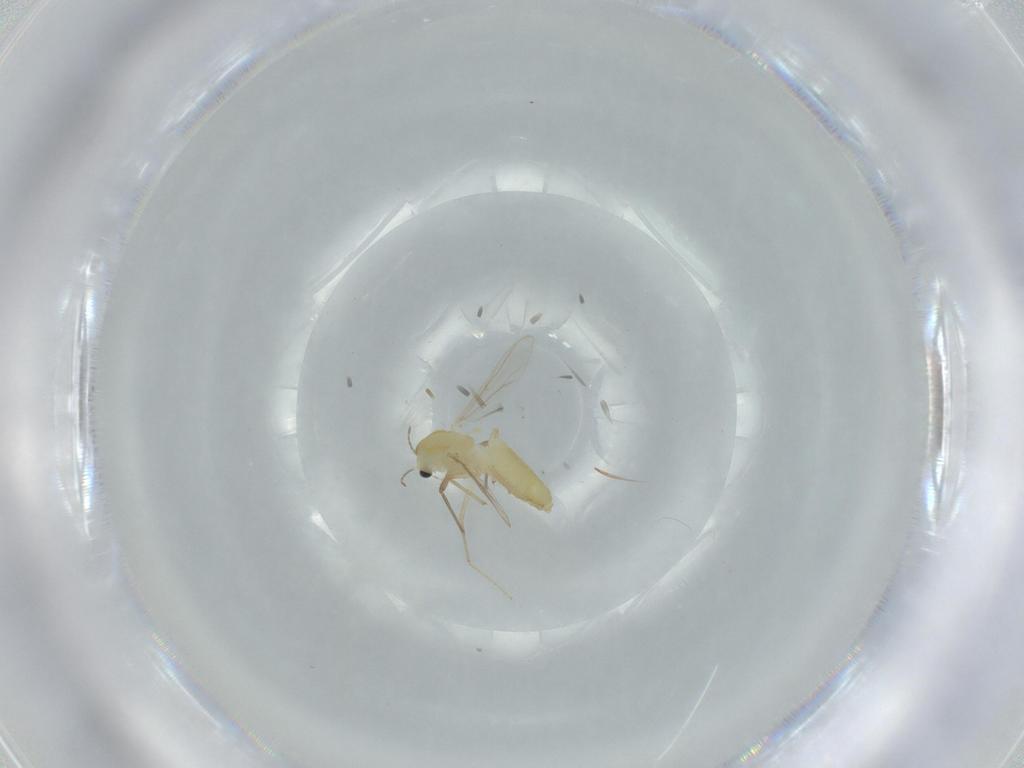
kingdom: Animalia
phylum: Arthropoda
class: Insecta
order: Diptera
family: Chironomidae
